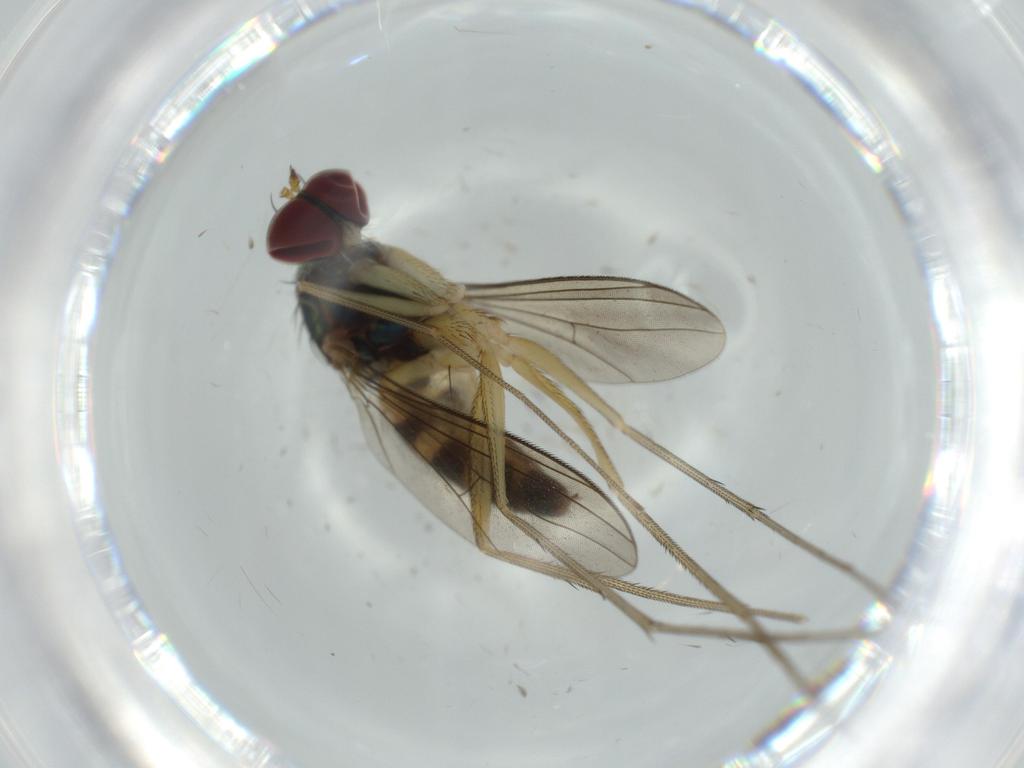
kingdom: Animalia
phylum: Arthropoda
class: Insecta
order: Diptera
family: Dolichopodidae
